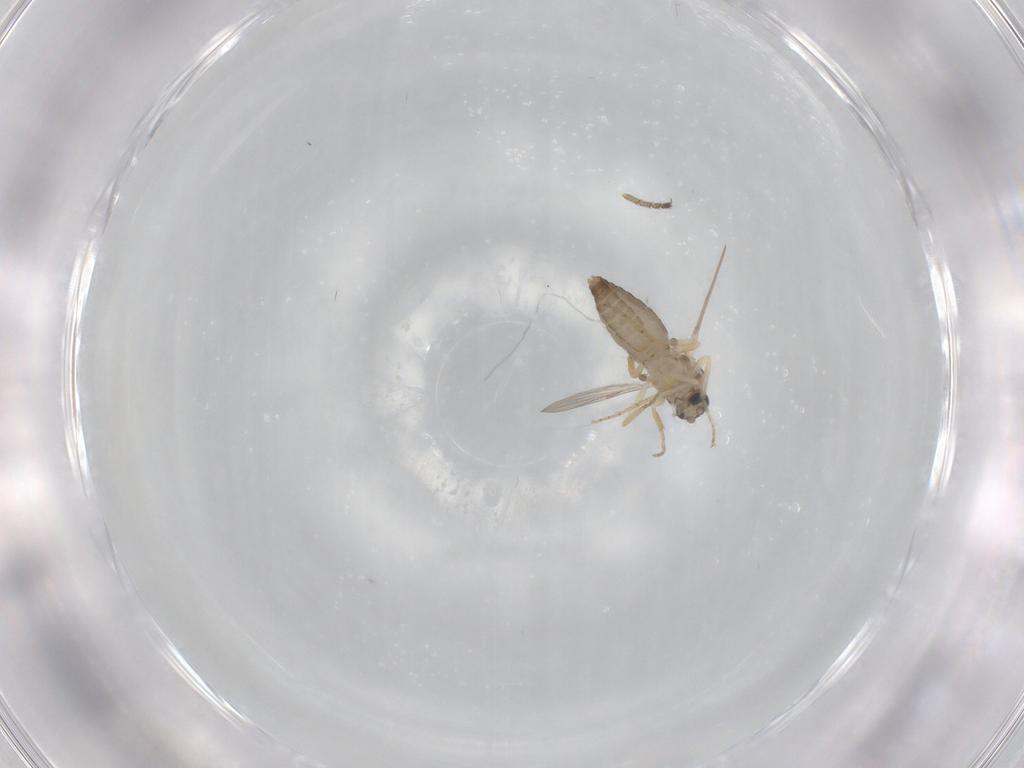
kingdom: Animalia
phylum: Arthropoda
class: Insecta
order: Diptera
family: Ceratopogonidae
